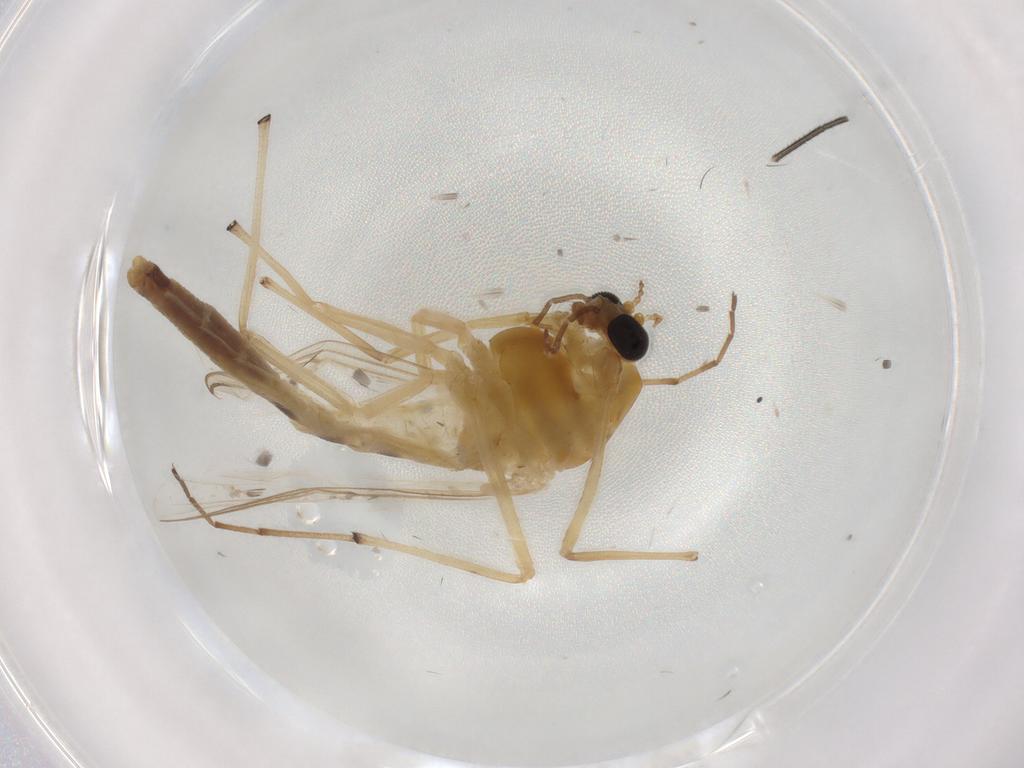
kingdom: Animalia
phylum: Arthropoda
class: Insecta
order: Diptera
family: Chironomidae
